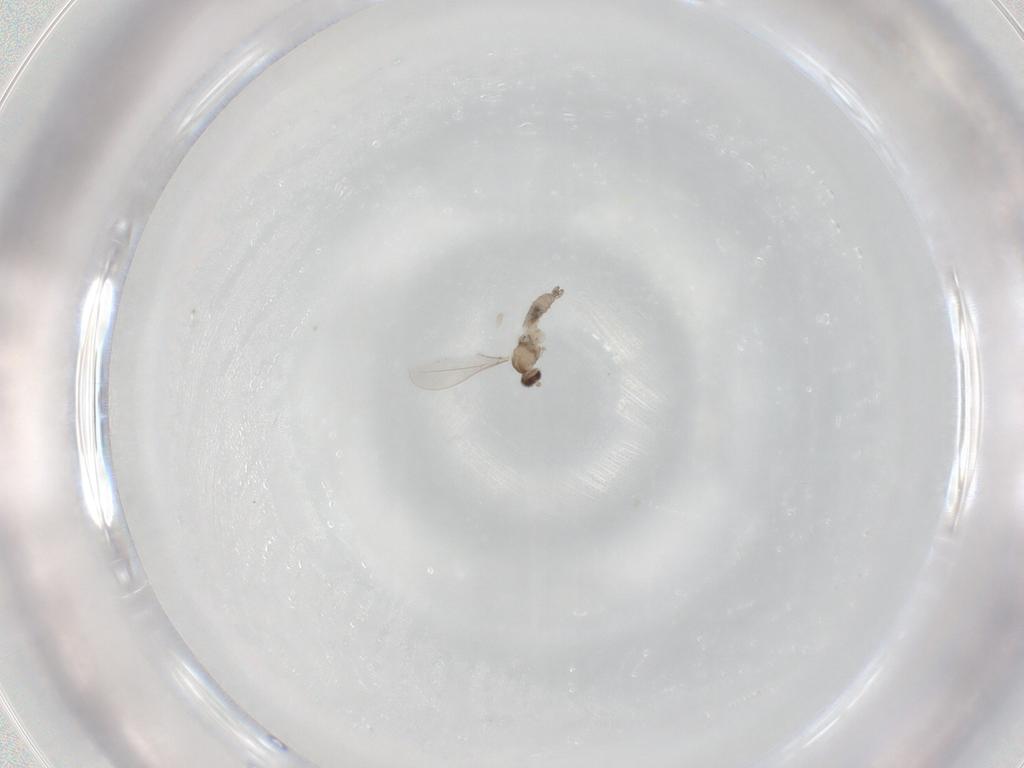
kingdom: Animalia
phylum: Arthropoda
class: Insecta
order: Diptera
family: Cecidomyiidae
